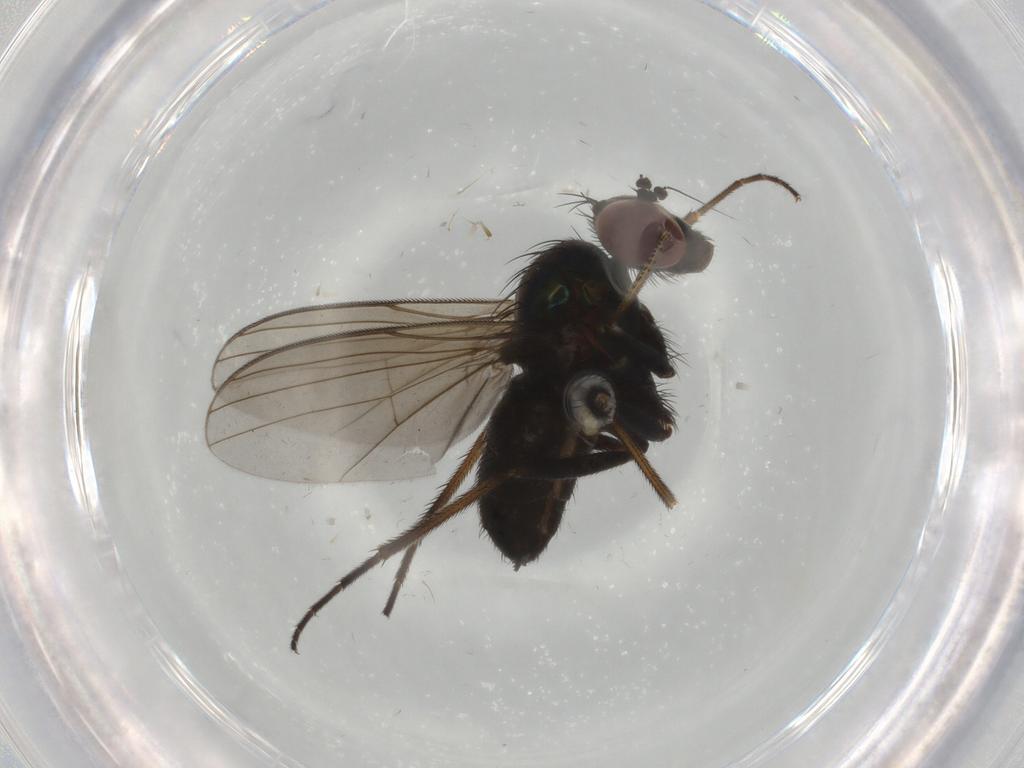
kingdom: Animalia
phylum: Arthropoda
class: Insecta
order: Diptera
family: Dolichopodidae
